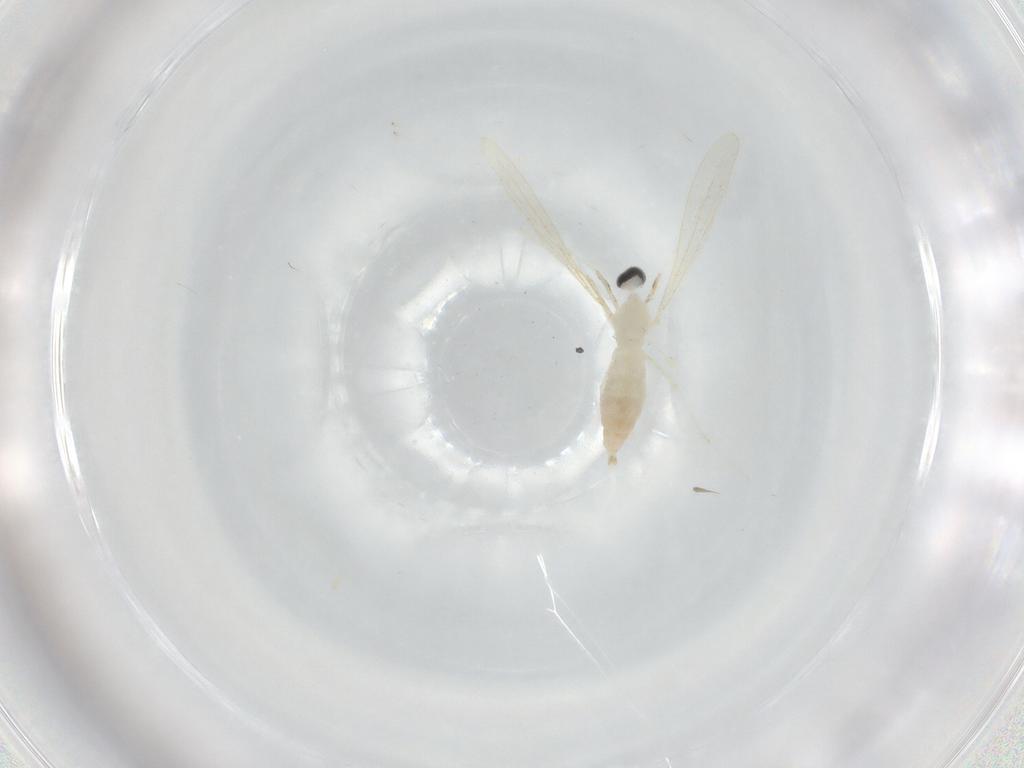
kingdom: Animalia
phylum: Arthropoda
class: Insecta
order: Diptera
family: Cecidomyiidae
